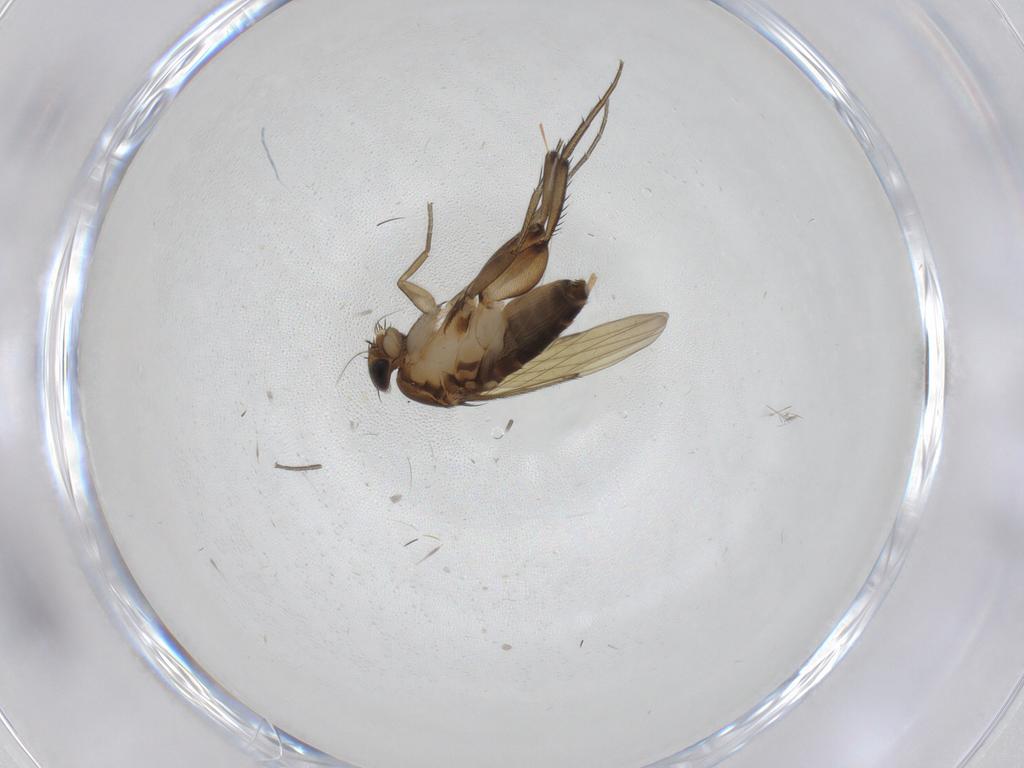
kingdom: Animalia
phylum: Arthropoda
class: Insecta
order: Diptera
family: Phoridae
